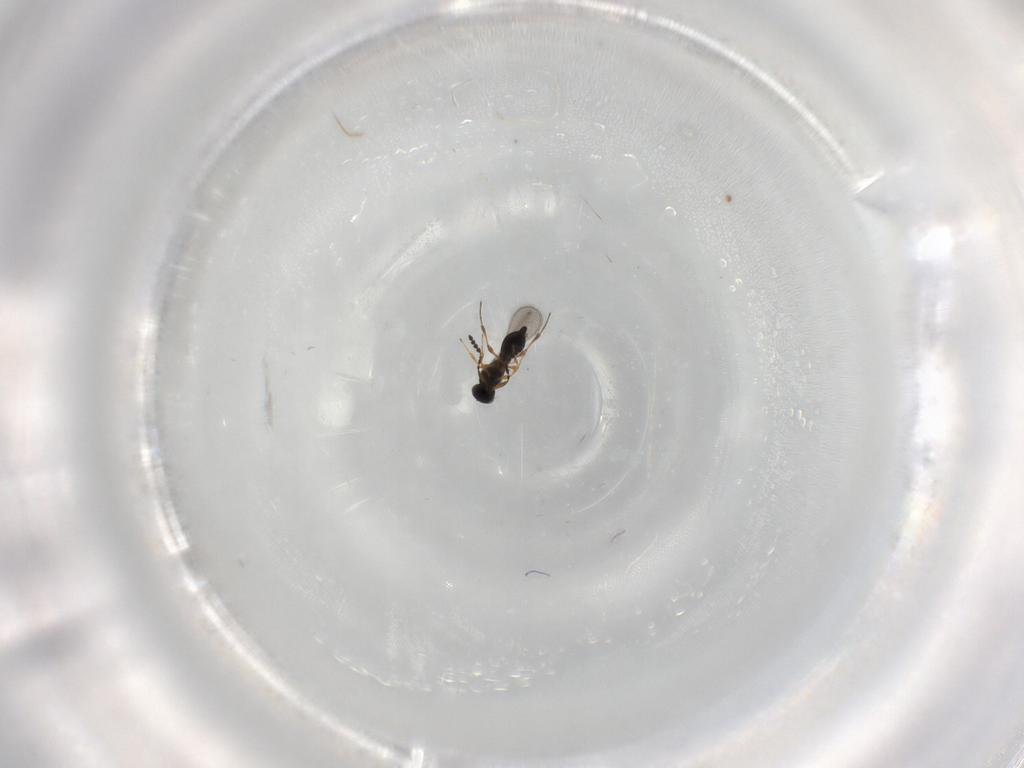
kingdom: Animalia
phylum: Arthropoda
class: Insecta
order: Hymenoptera
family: Platygastridae
